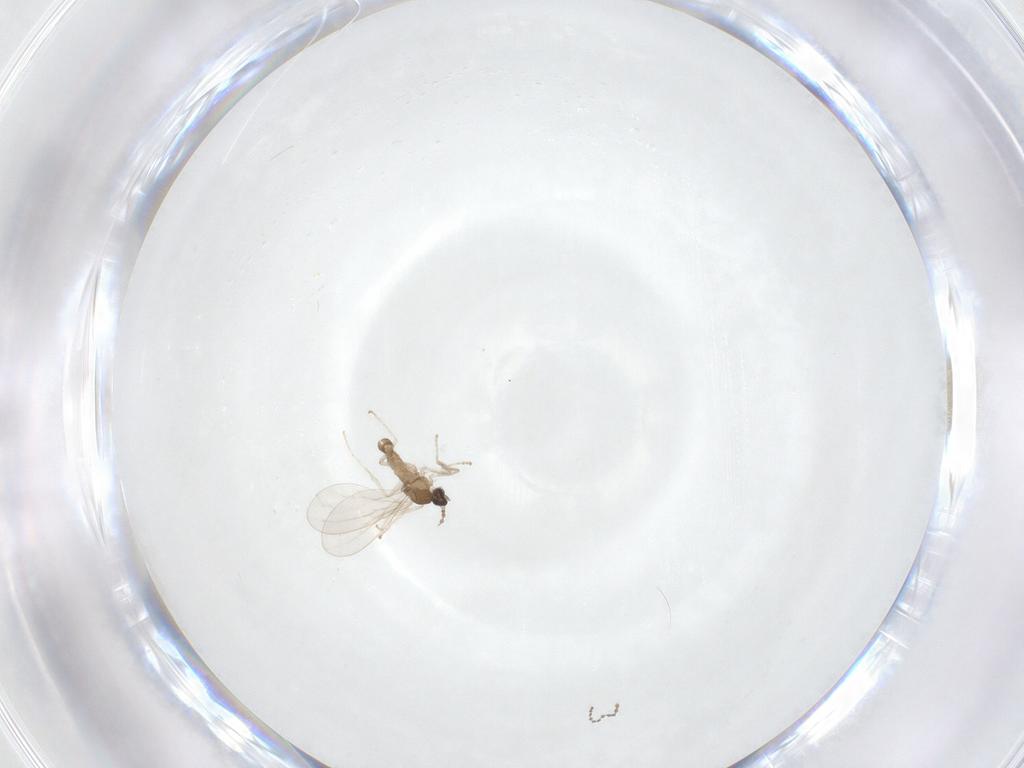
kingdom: Animalia
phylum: Arthropoda
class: Insecta
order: Diptera
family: Cecidomyiidae
